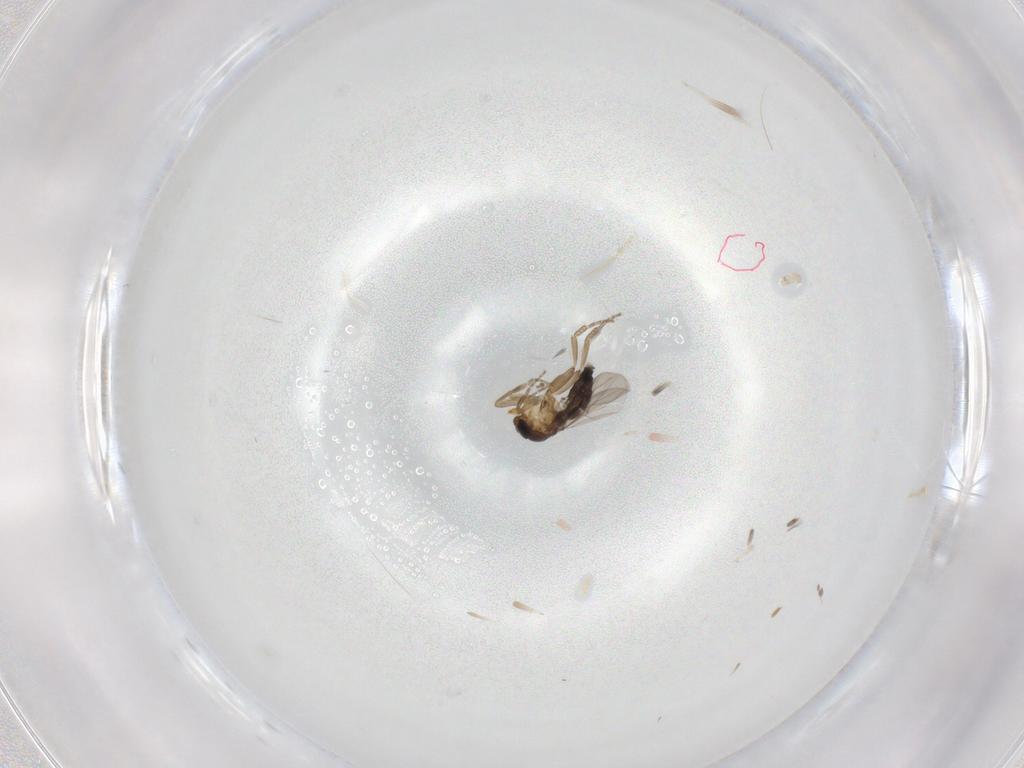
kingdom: Animalia
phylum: Arthropoda
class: Insecta
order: Diptera
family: Phoridae
